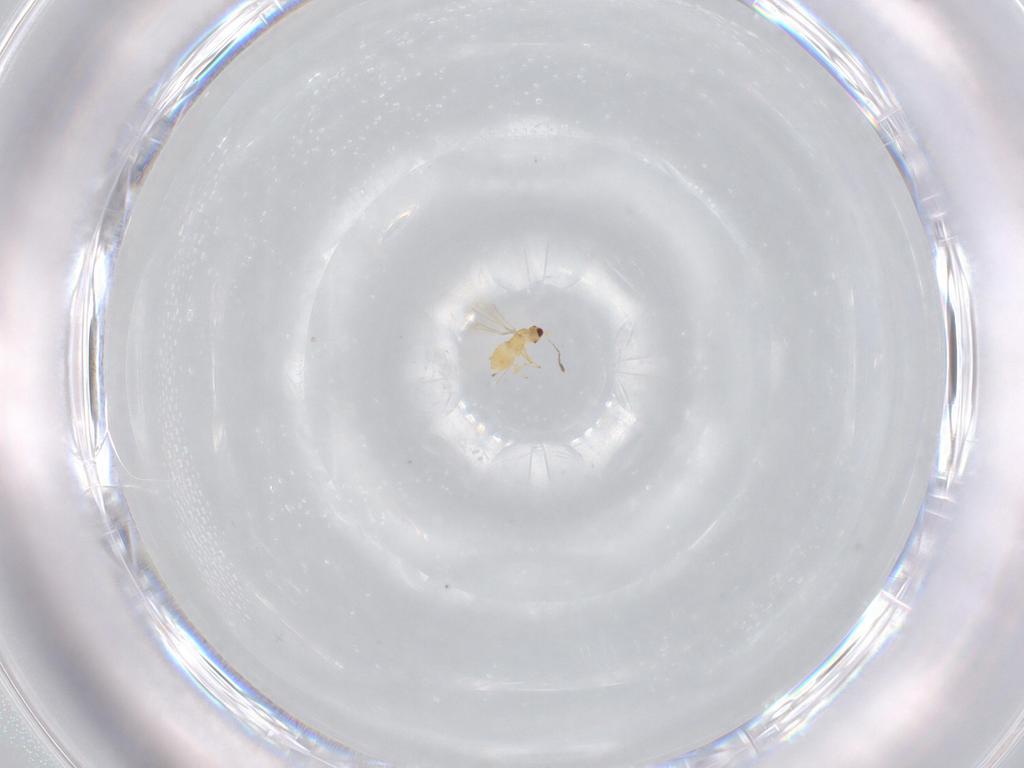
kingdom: Animalia
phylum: Arthropoda
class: Insecta
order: Hymenoptera
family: Mymaridae
